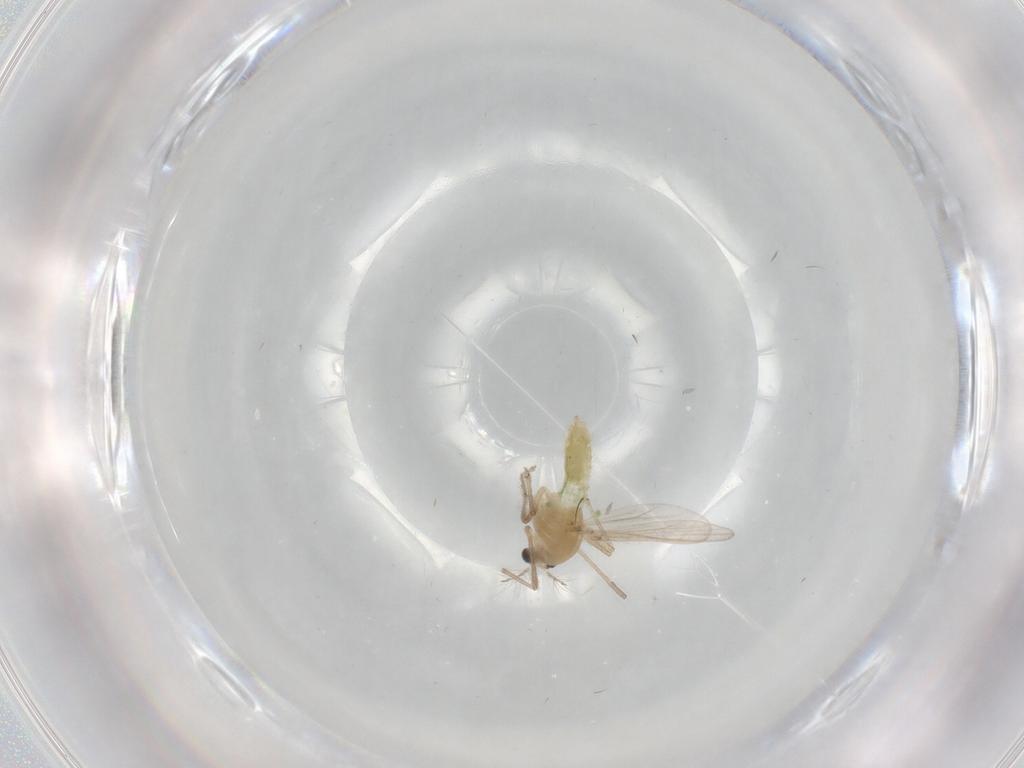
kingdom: Animalia
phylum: Arthropoda
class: Insecta
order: Diptera
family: Chironomidae
